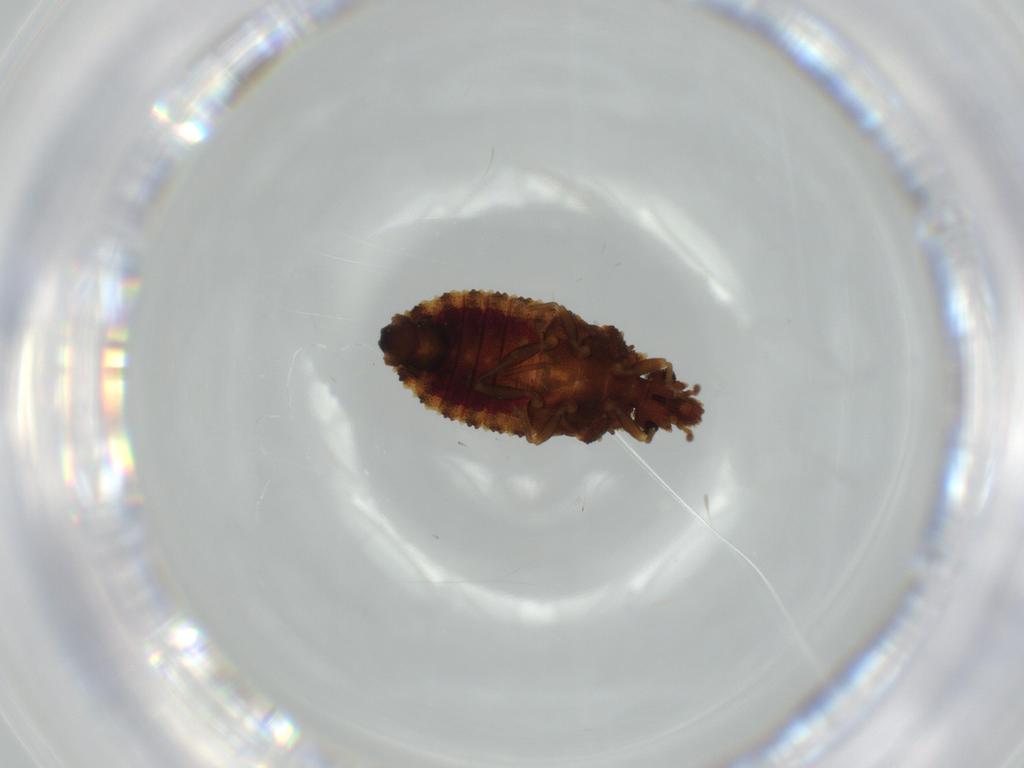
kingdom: Animalia
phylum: Arthropoda
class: Insecta
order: Hemiptera
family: Aradidae
